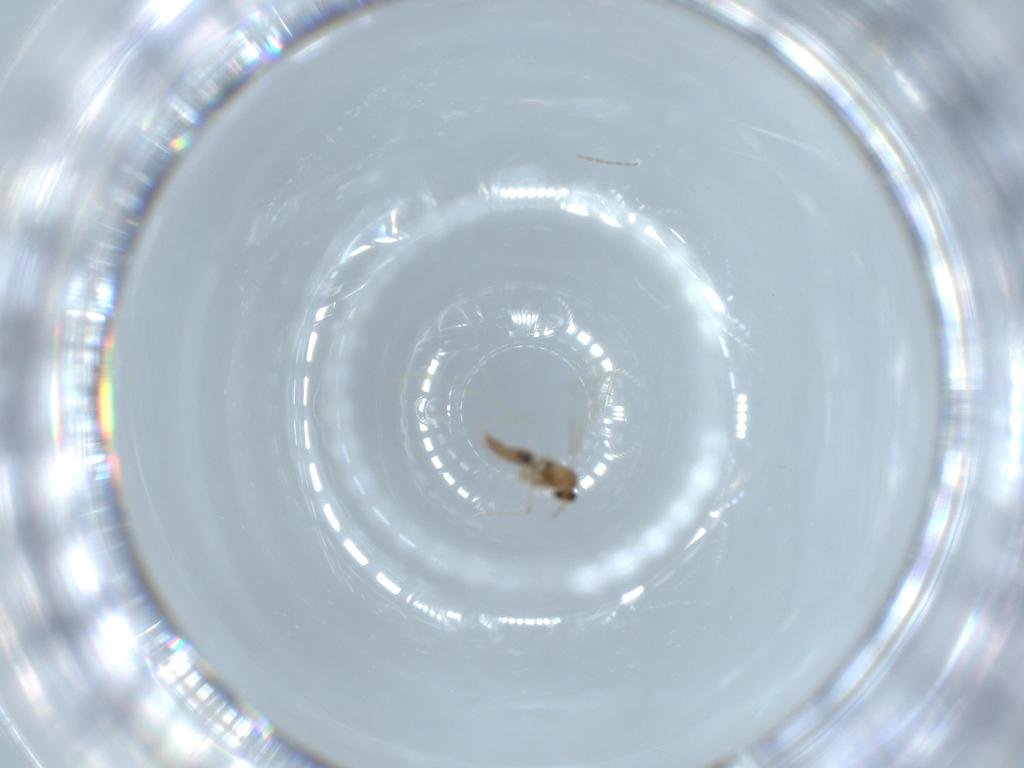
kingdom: Animalia
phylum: Arthropoda
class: Insecta
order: Diptera
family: Cecidomyiidae
